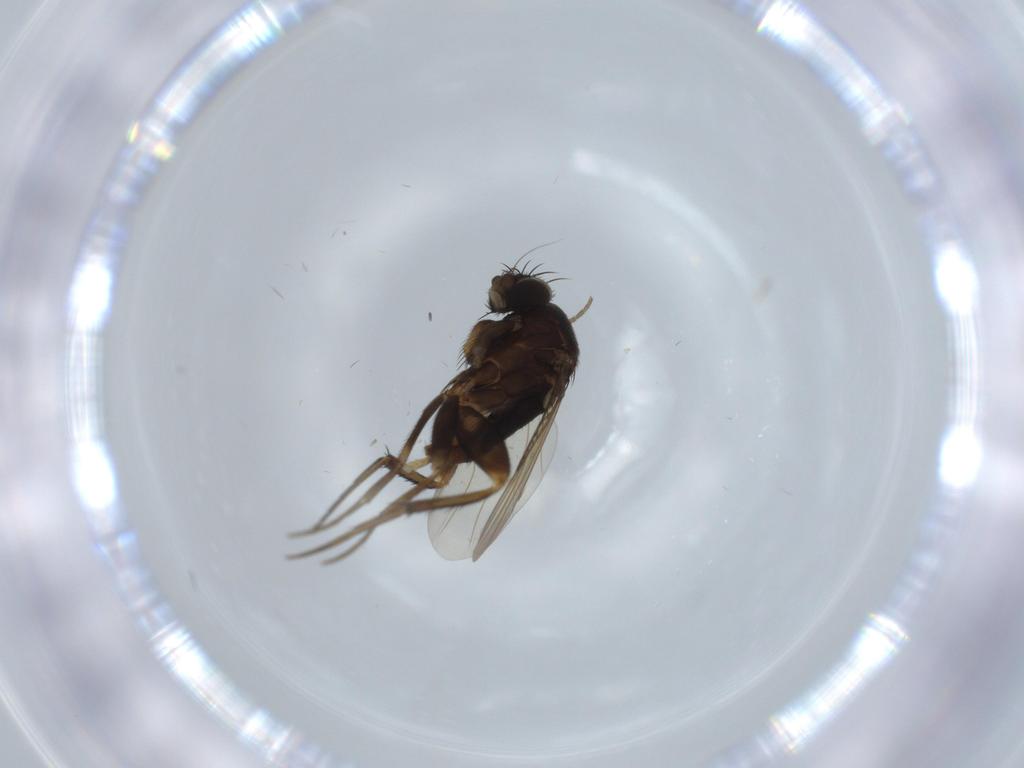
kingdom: Animalia
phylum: Arthropoda
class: Insecta
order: Diptera
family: Phoridae
